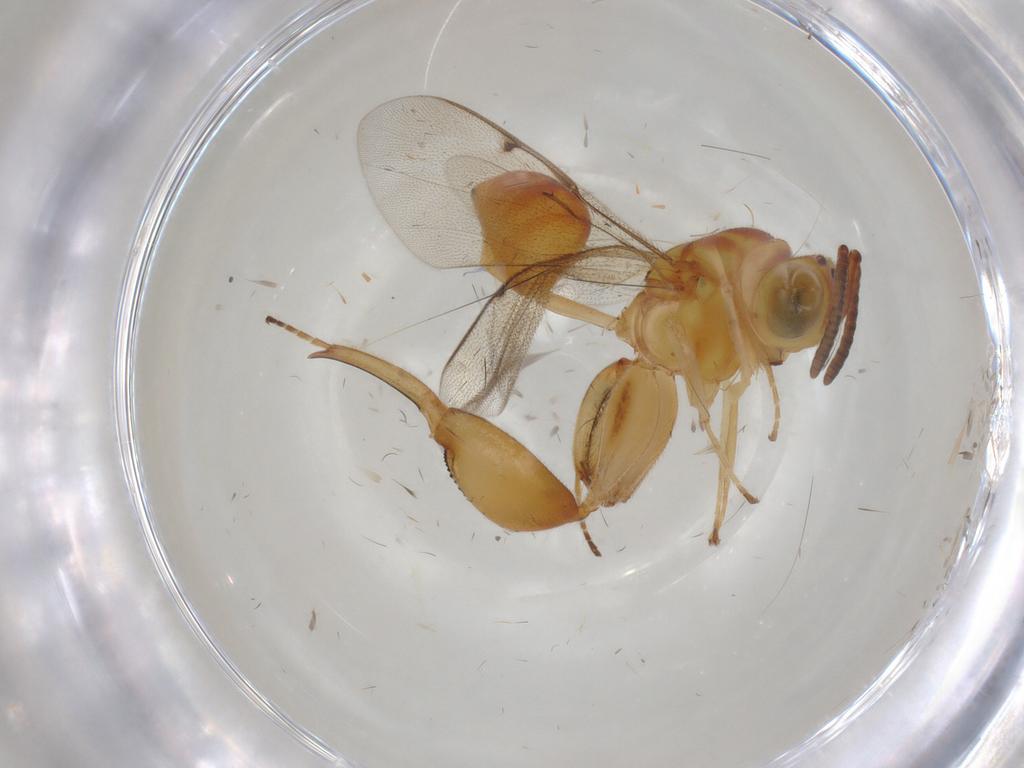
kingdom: Animalia
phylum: Arthropoda
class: Insecta
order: Hymenoptera
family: Chalcididae
